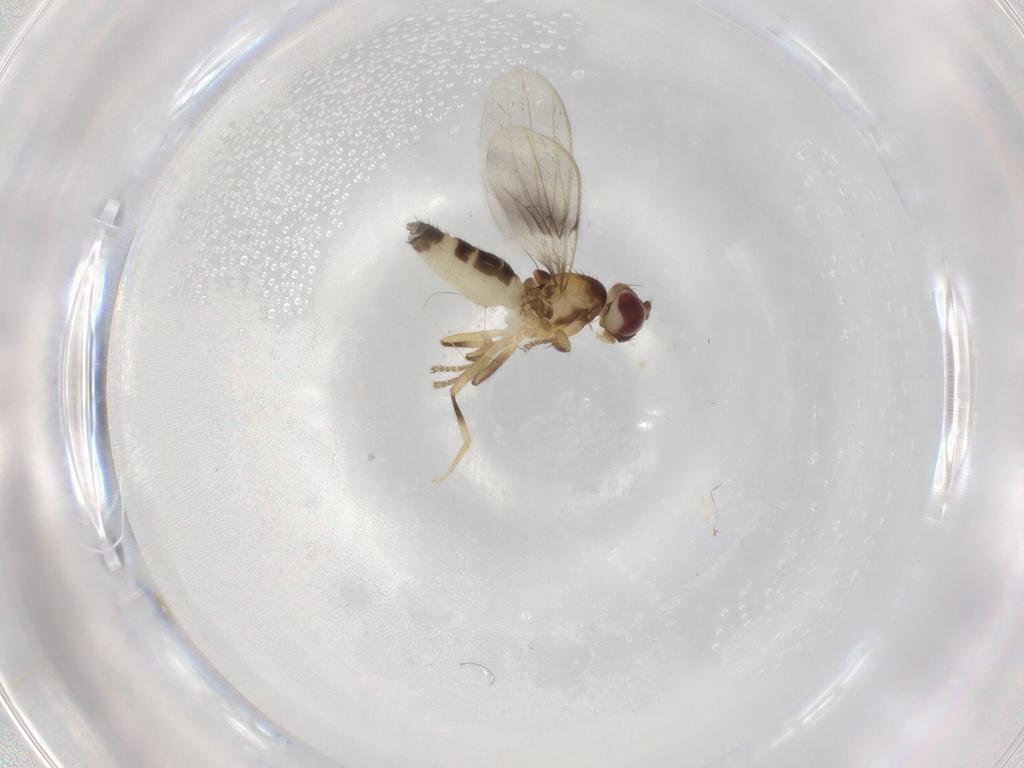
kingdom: Animalia
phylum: Arthropoda
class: Insecta
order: Diptera
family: Periscelididae
